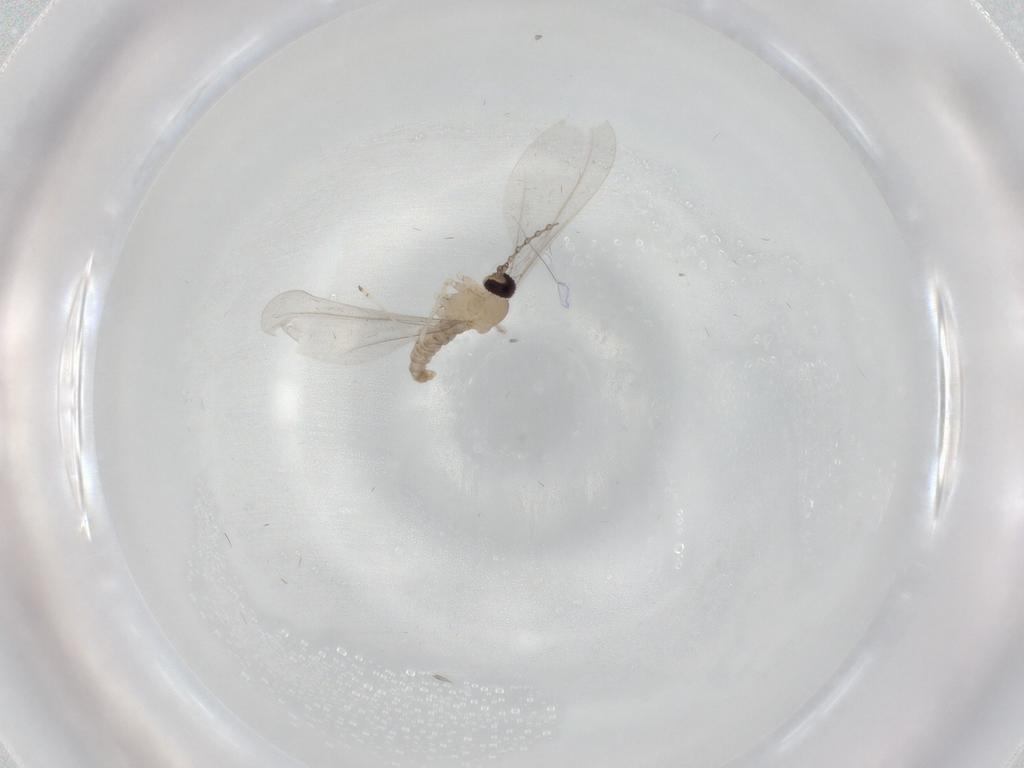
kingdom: Animalia
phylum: Arthropoda
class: Insecta
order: Diptera
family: Cecidomyiidae
